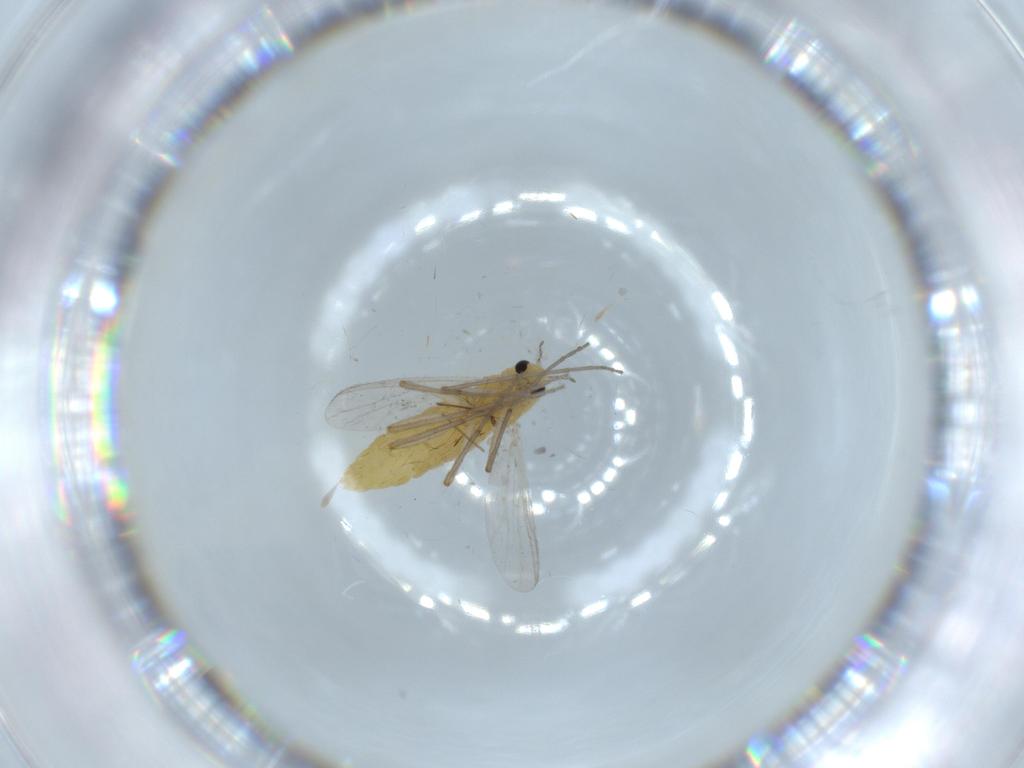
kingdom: Animalia
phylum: Arthropoda
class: Insecta
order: Diptera
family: Chironomidae
